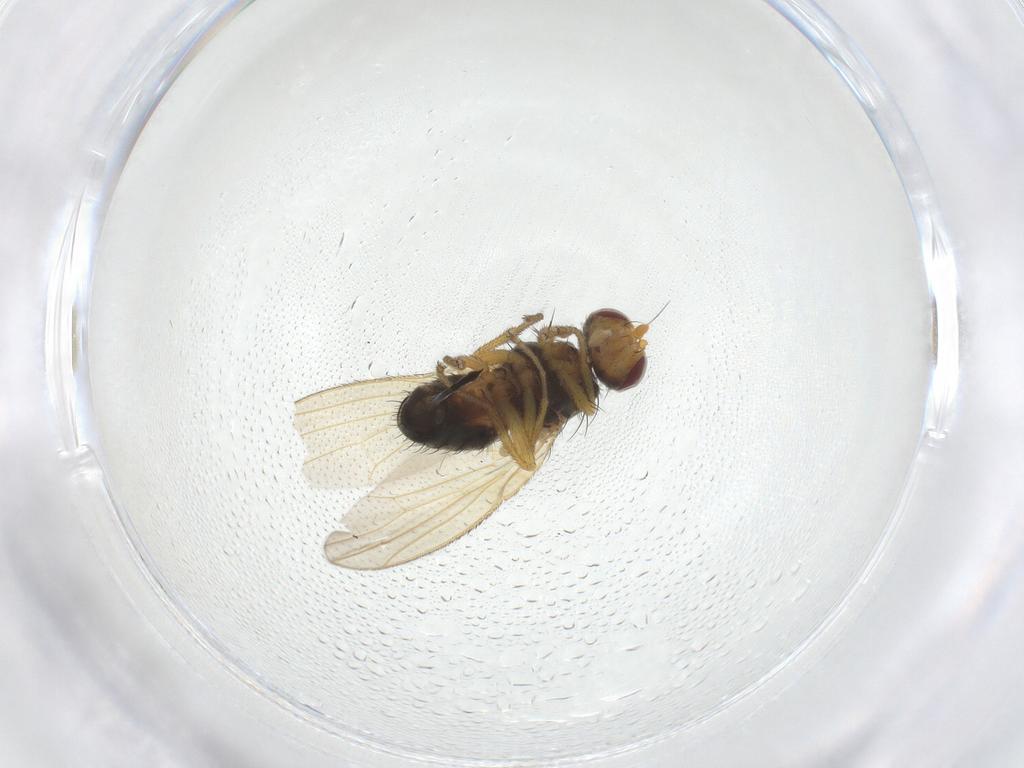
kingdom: Animalia
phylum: Arthropoda
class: Insecta
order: Diptera
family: Heleomyzidae
